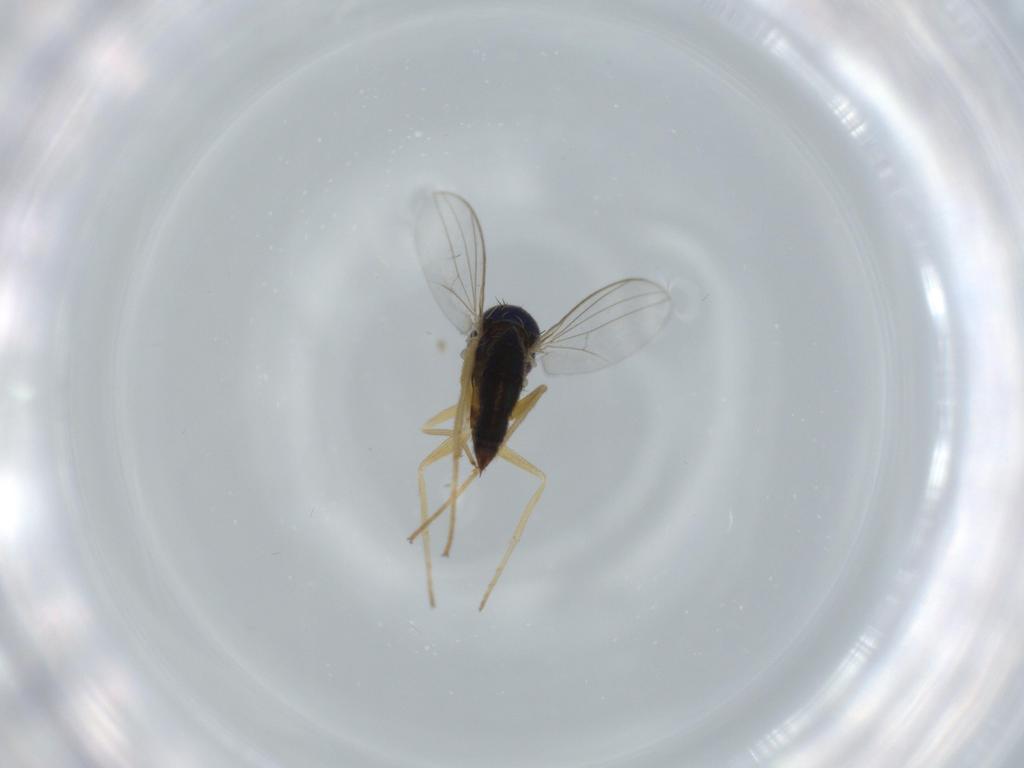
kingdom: Animalia
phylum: Arthropoda
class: Insecta
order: Diptera
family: Dolichopodidae
